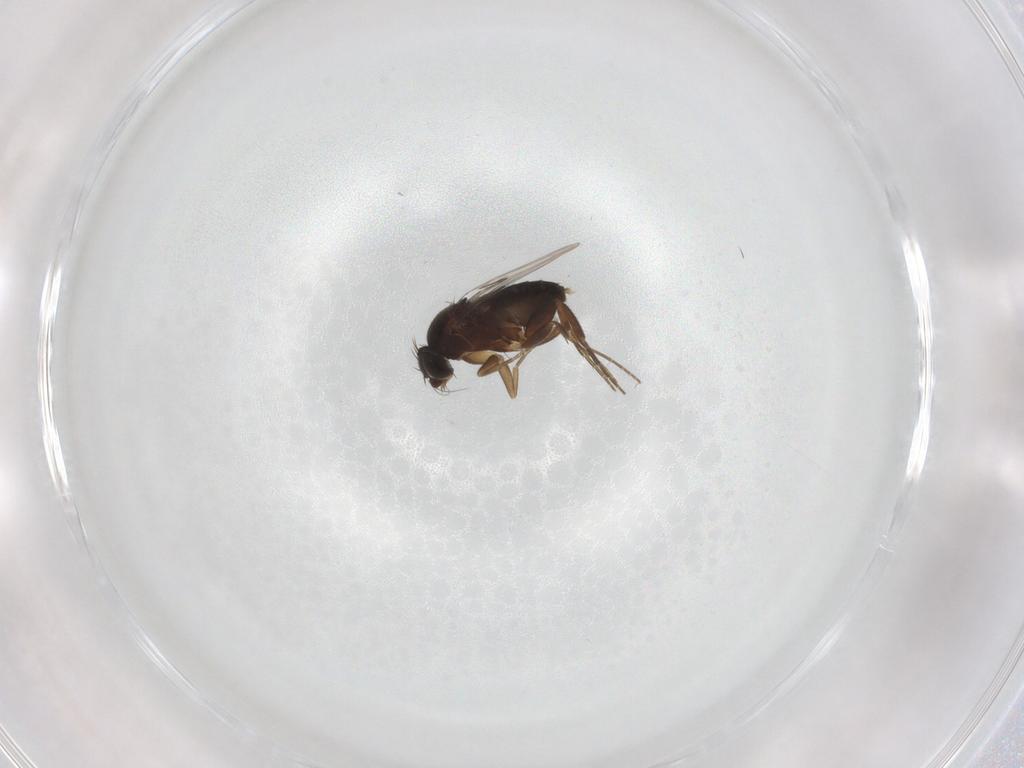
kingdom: Animalia
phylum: Arthropoda
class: Insecta
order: Diptera
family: Phoridae
